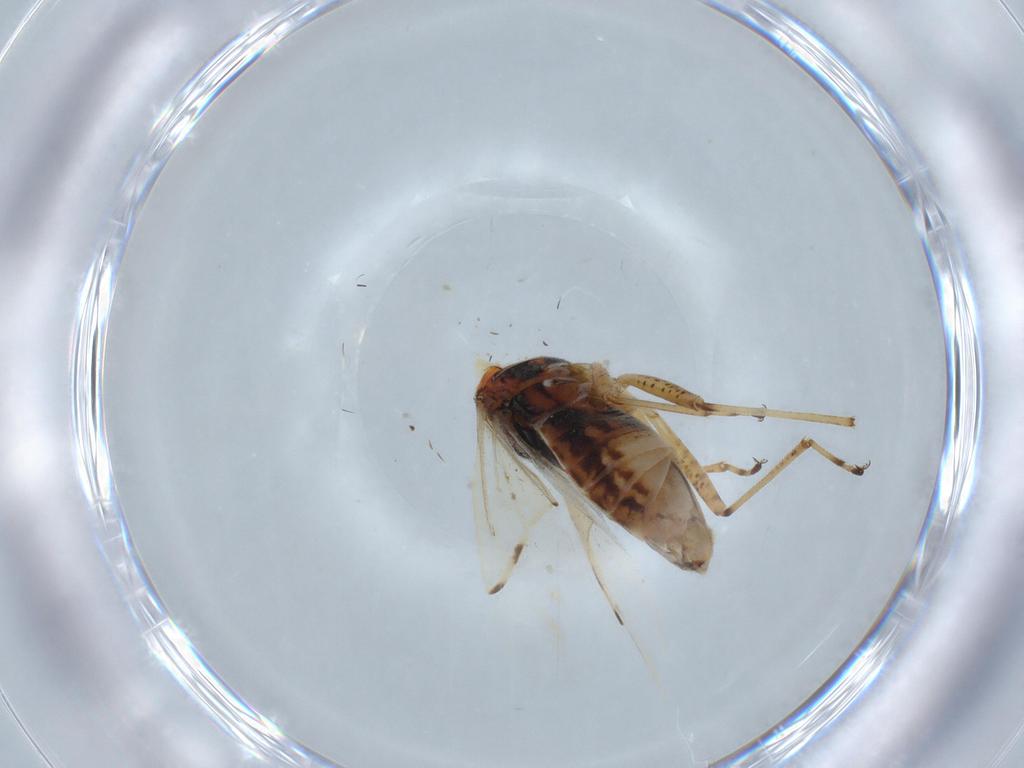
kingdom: Animalia
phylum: Arthropoda
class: Insecta
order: Hemiptera
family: Lygaeidae
